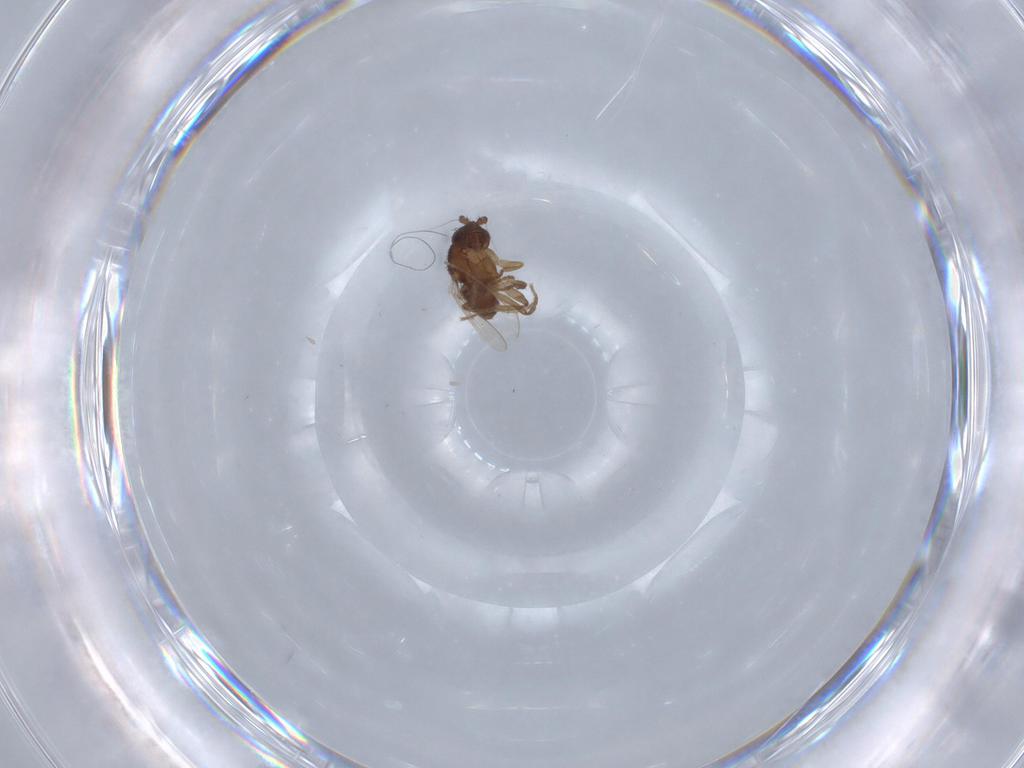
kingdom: Animalia
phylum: Arthropoda
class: Insecta
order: Diptera
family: Sphaeroceridae
